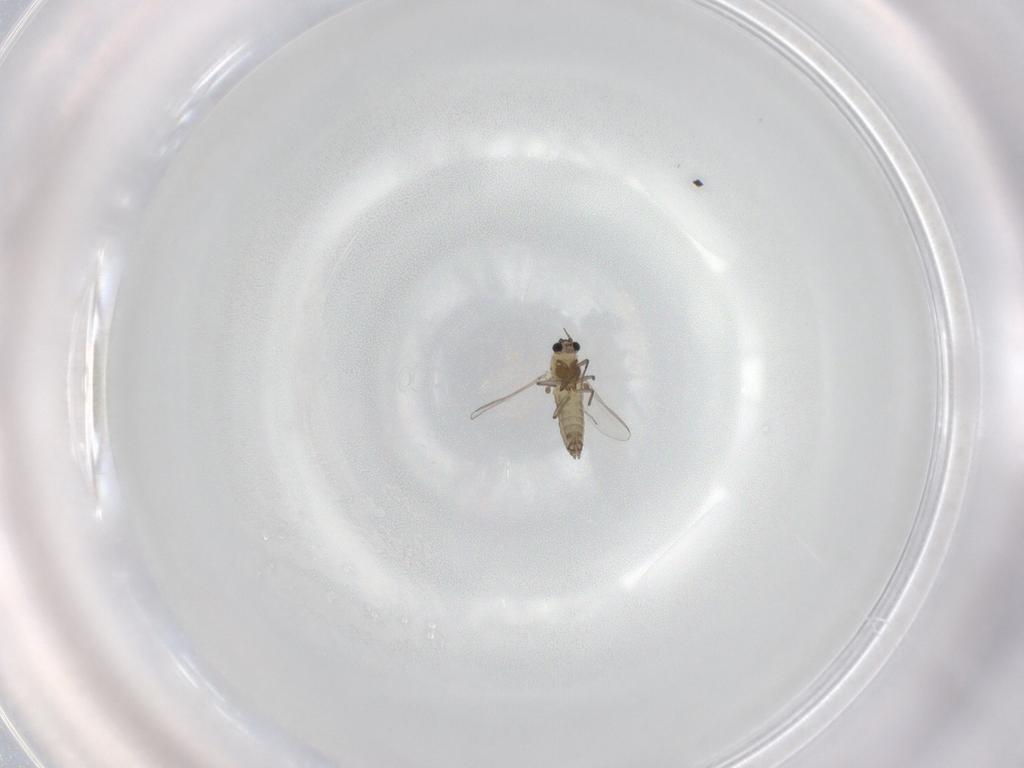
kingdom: Animalia
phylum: Arthropoda
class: Insecta
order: Diptera
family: Chironomidae
